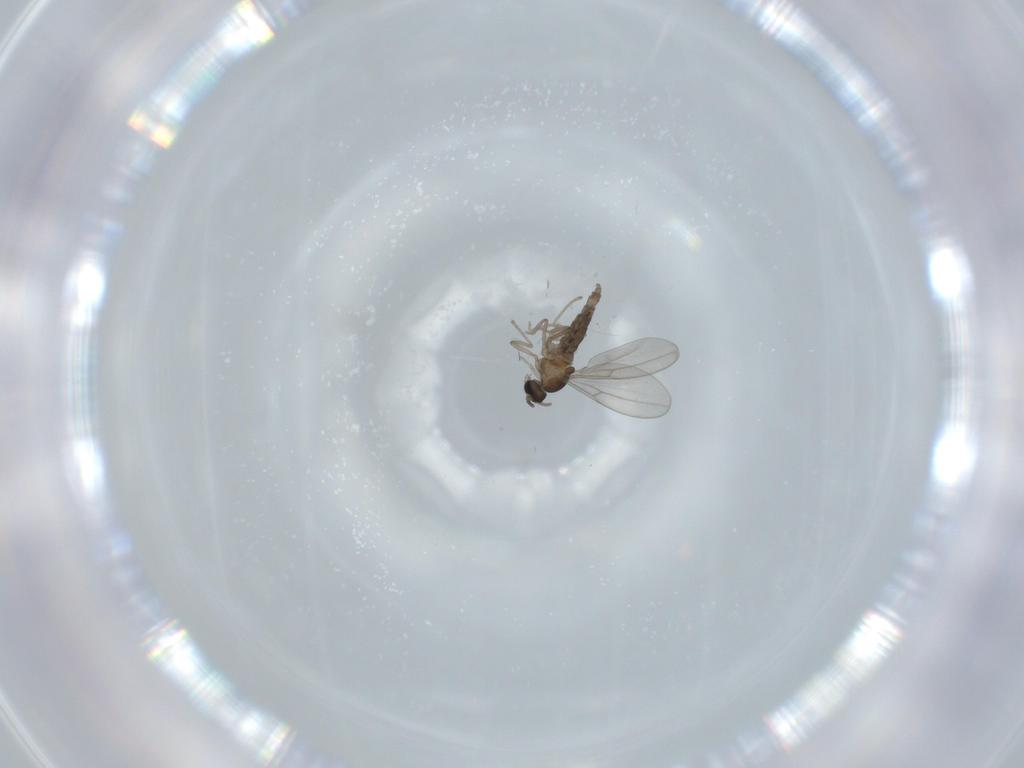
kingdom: Animalia
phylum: Arthropoda
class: Insecta
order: Diptera
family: Cecidomyiidae
